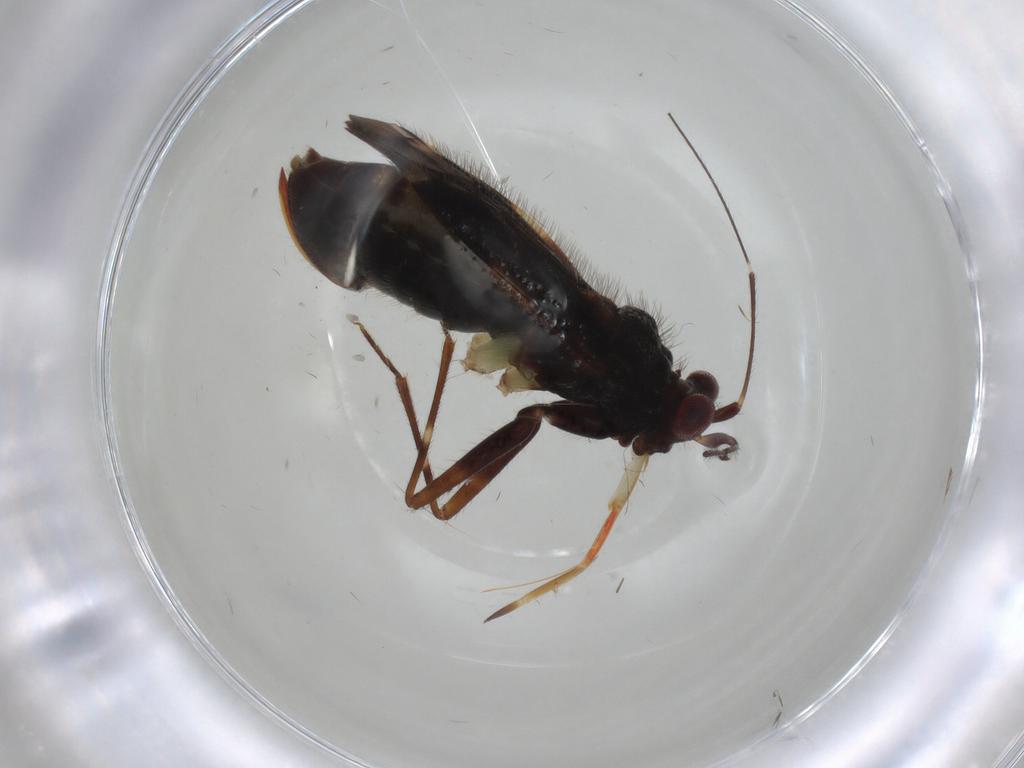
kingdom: Animalia
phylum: Arthropoda
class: Insecta
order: Hemiptera
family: Miridae
